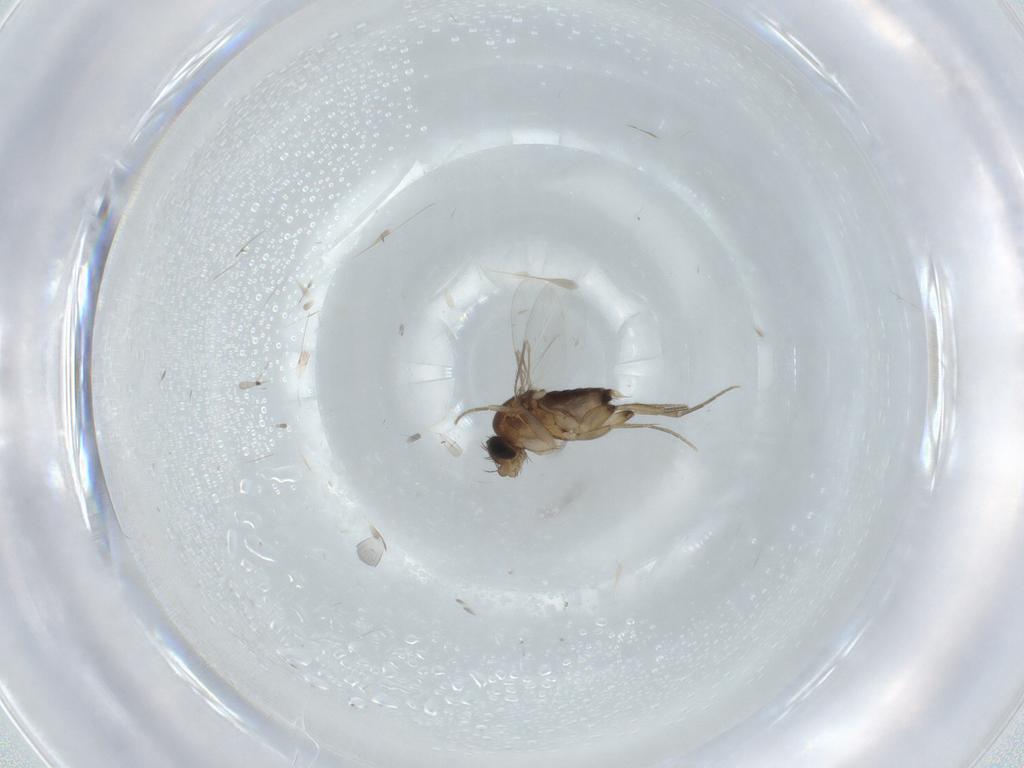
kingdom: Animalia
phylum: Arthropoda
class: Insecta
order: Diptera
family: Phoridae
